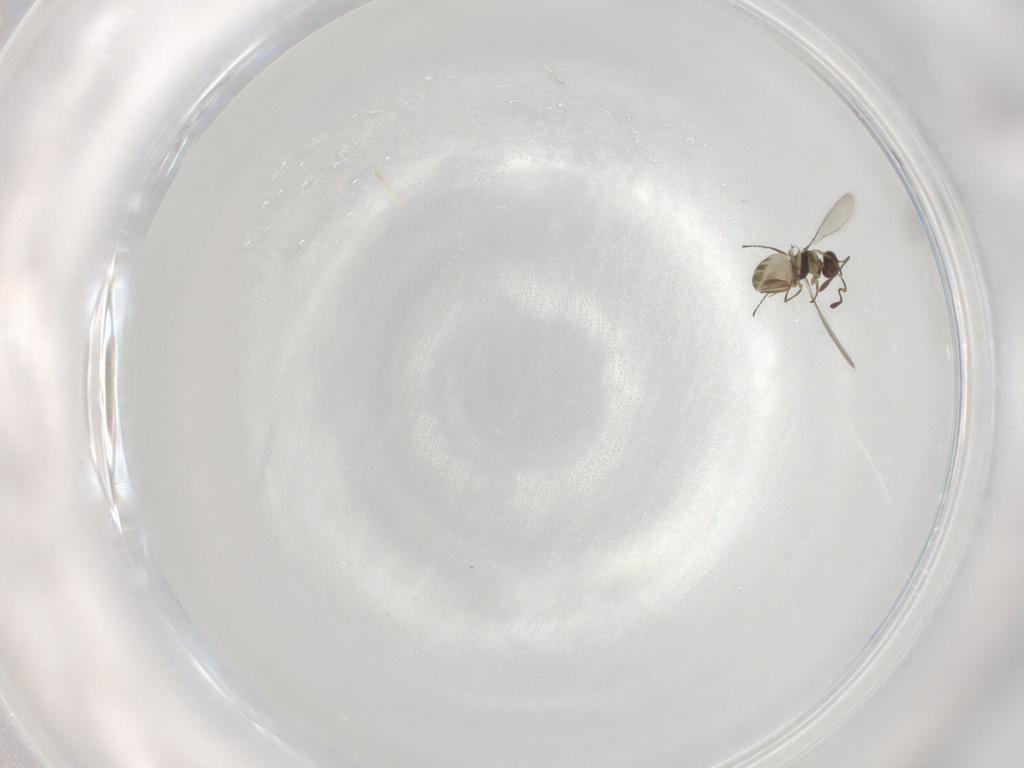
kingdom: Animalia
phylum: Arthropoda
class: Insecta
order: Hymenoptera
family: Mymaridae
